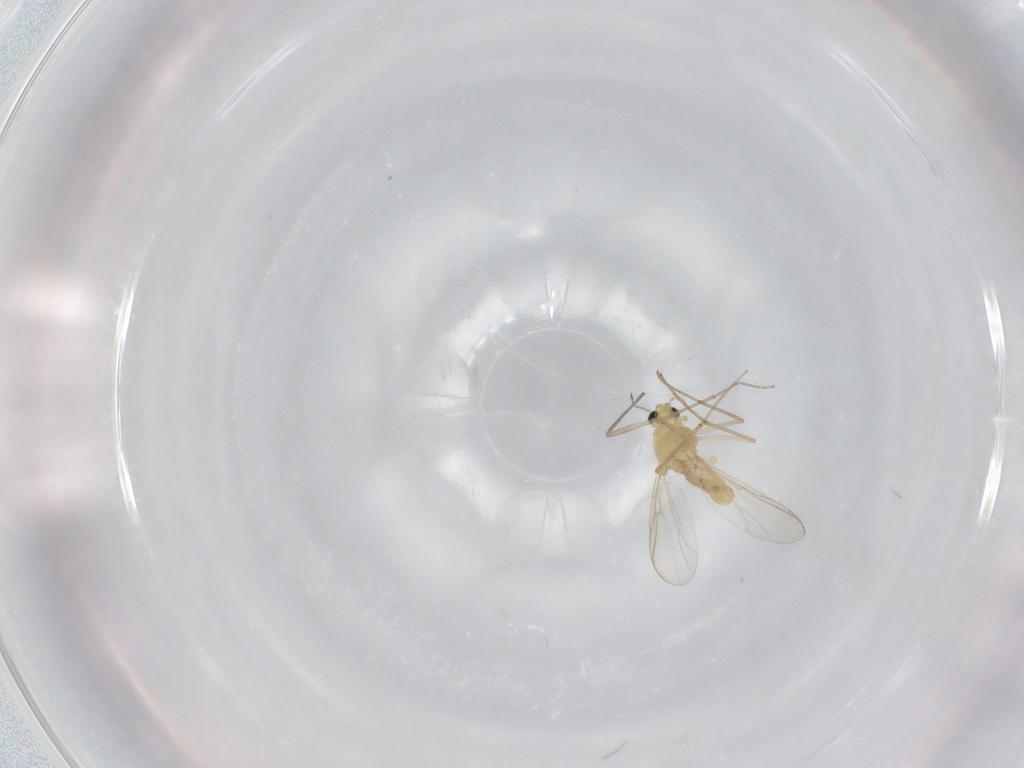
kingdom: Animalia
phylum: Arthropoda
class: Insecta
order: Diptera
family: Chironomidae
